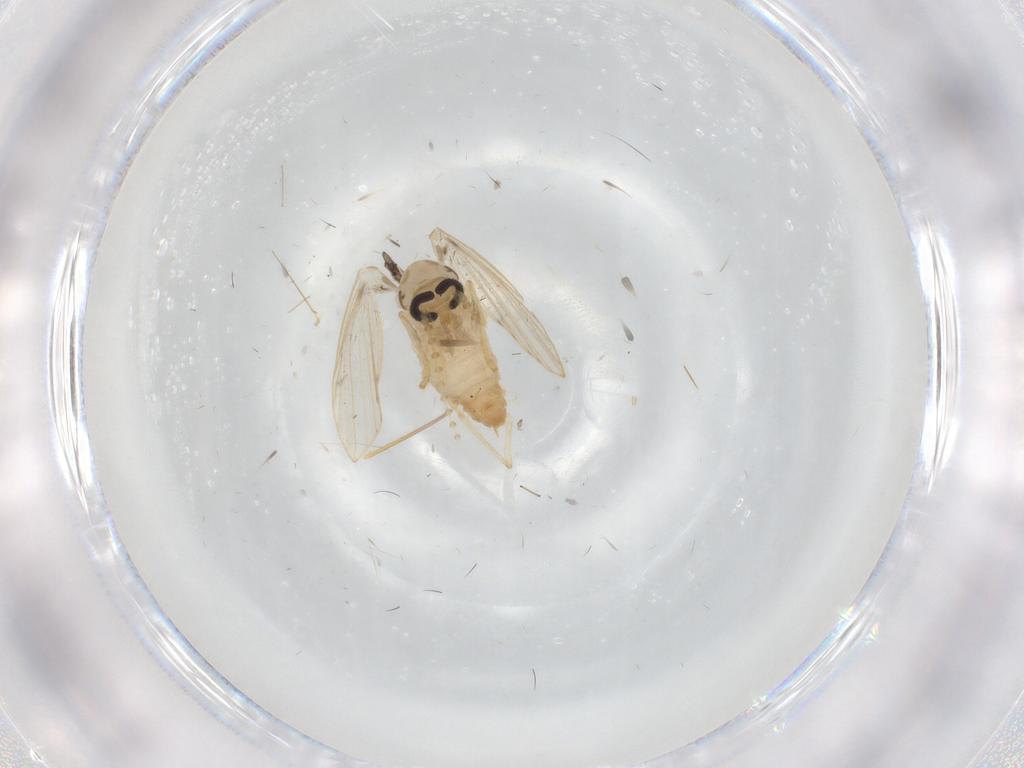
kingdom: Animalia
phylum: Arthropoda
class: Insecta
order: Diptera
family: Psychodidae
